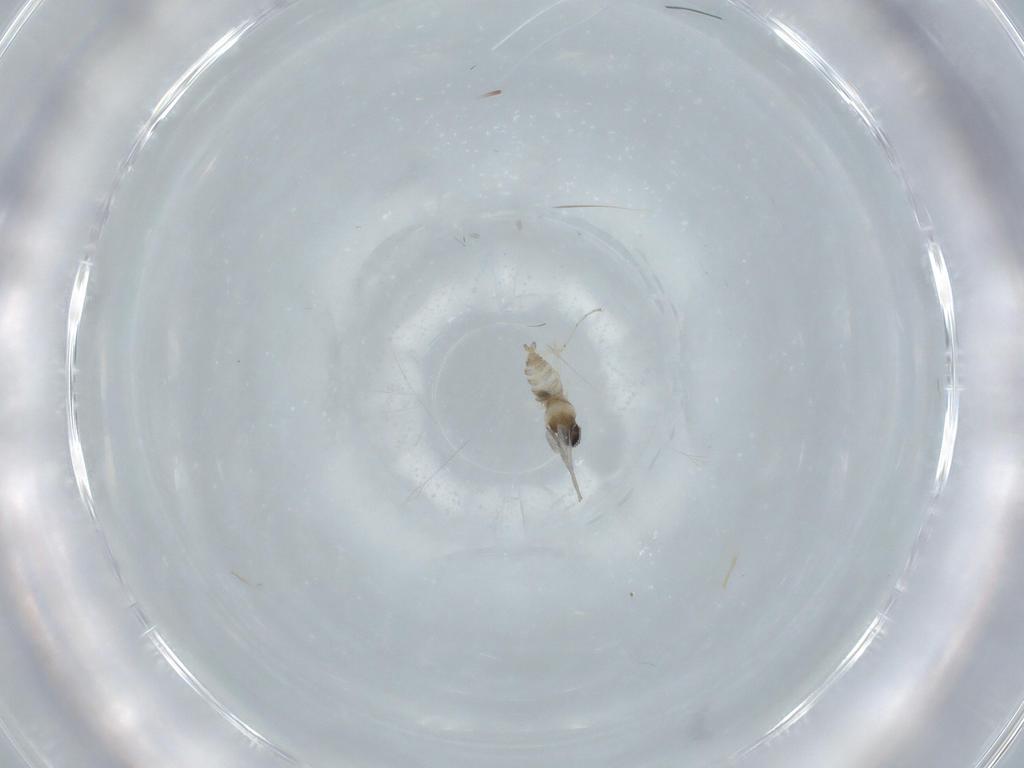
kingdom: Animalia
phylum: Arthropoda
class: Insecta
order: Diptera
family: Cecidomyiidae
